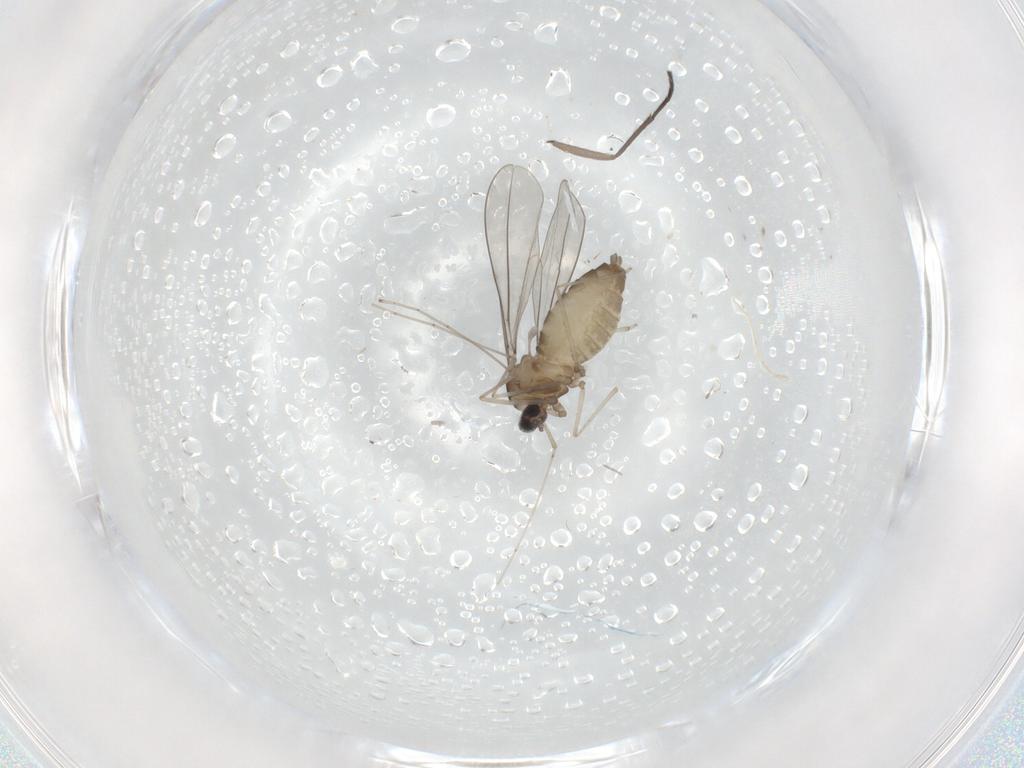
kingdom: Animalia
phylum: Arthropoda
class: Insecta
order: Diptera
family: Cecidomyiidae
